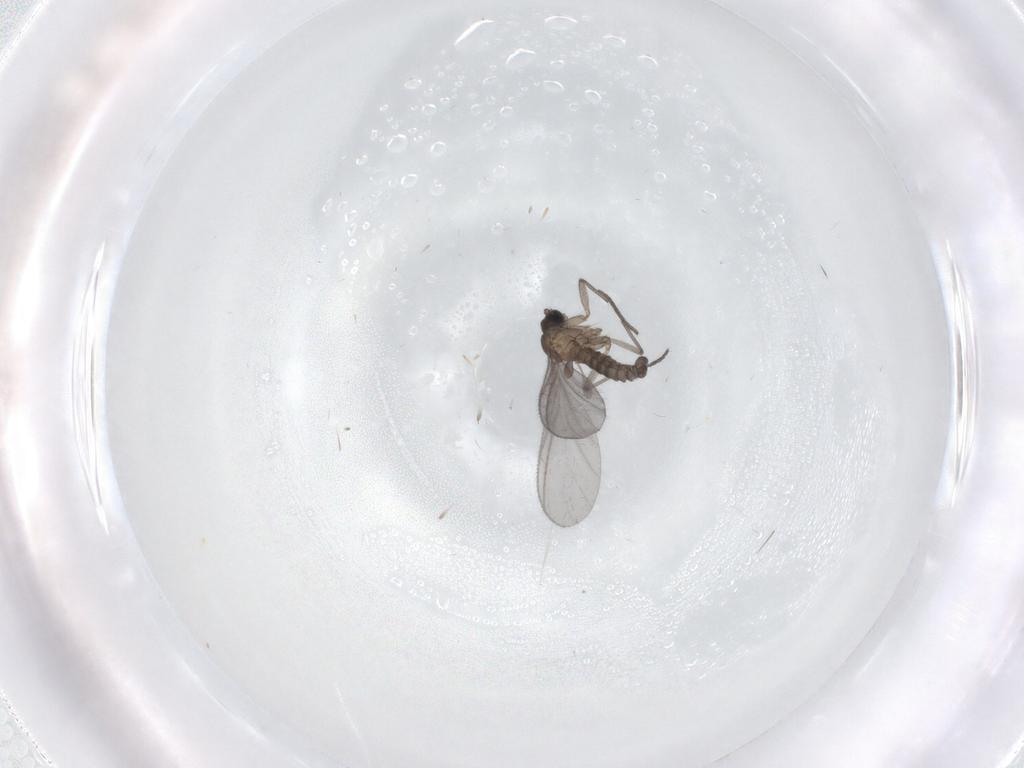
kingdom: Animalia
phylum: Arthropoda
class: Insecta
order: Diptera
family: Sciaridae
